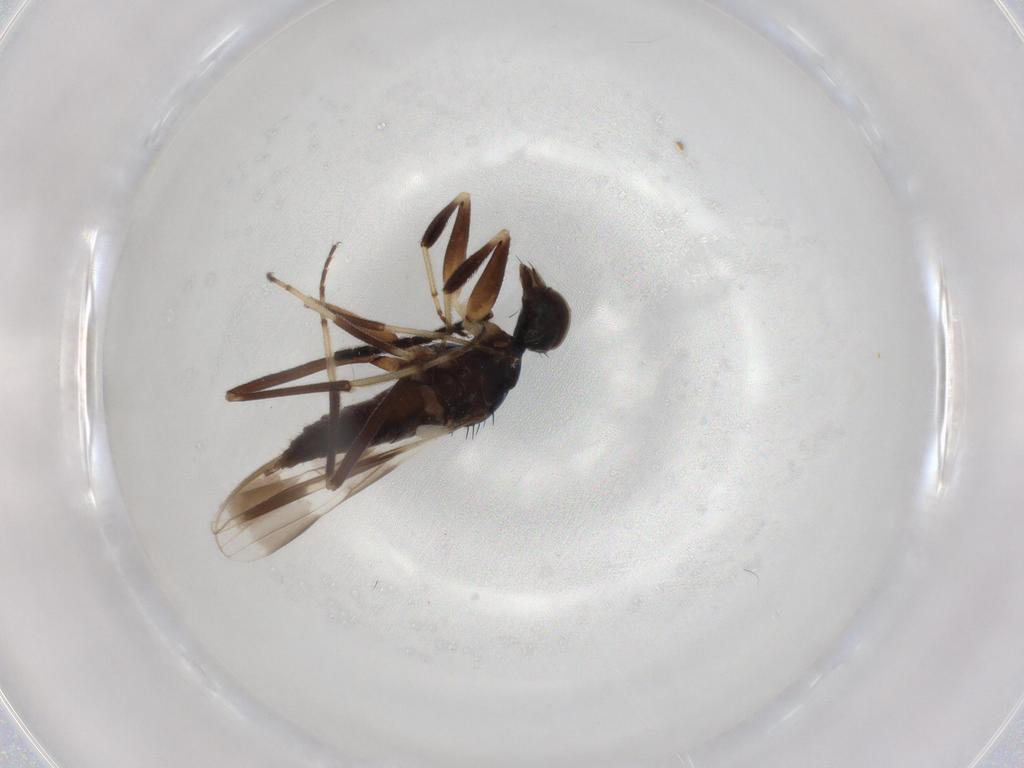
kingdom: Animalia
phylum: Arthropoda
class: Insecta
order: Diptera
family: Hybotidae
